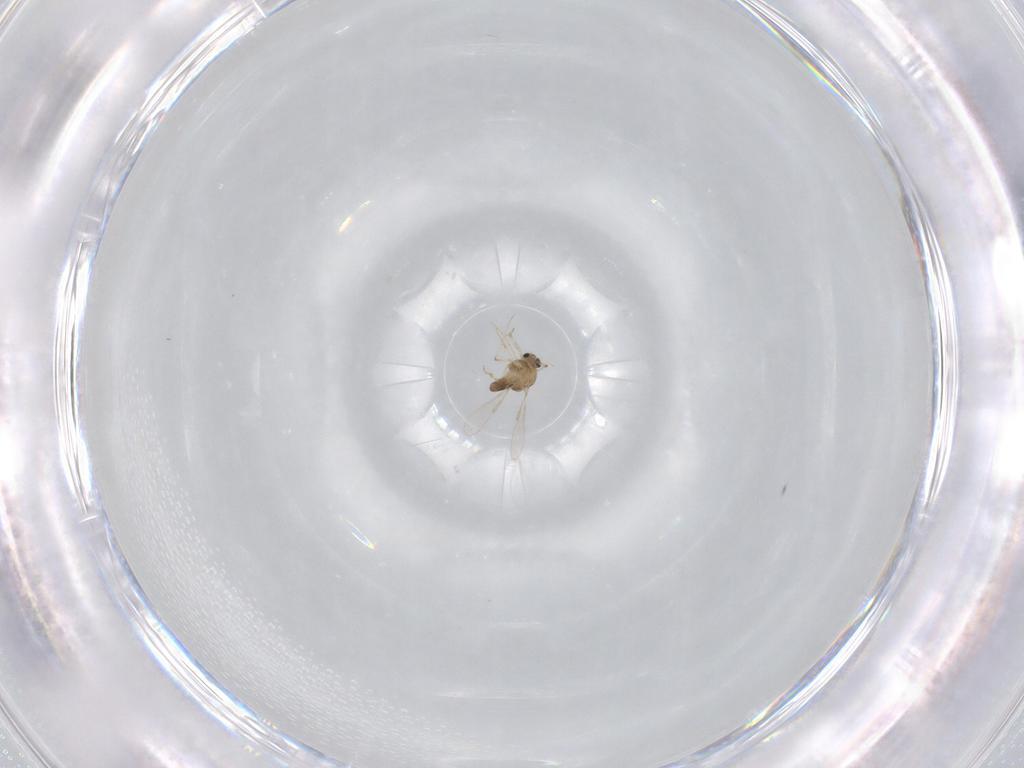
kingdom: Animalia
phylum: Arthropoda
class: Insecta
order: Diptera
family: Chironomidae
